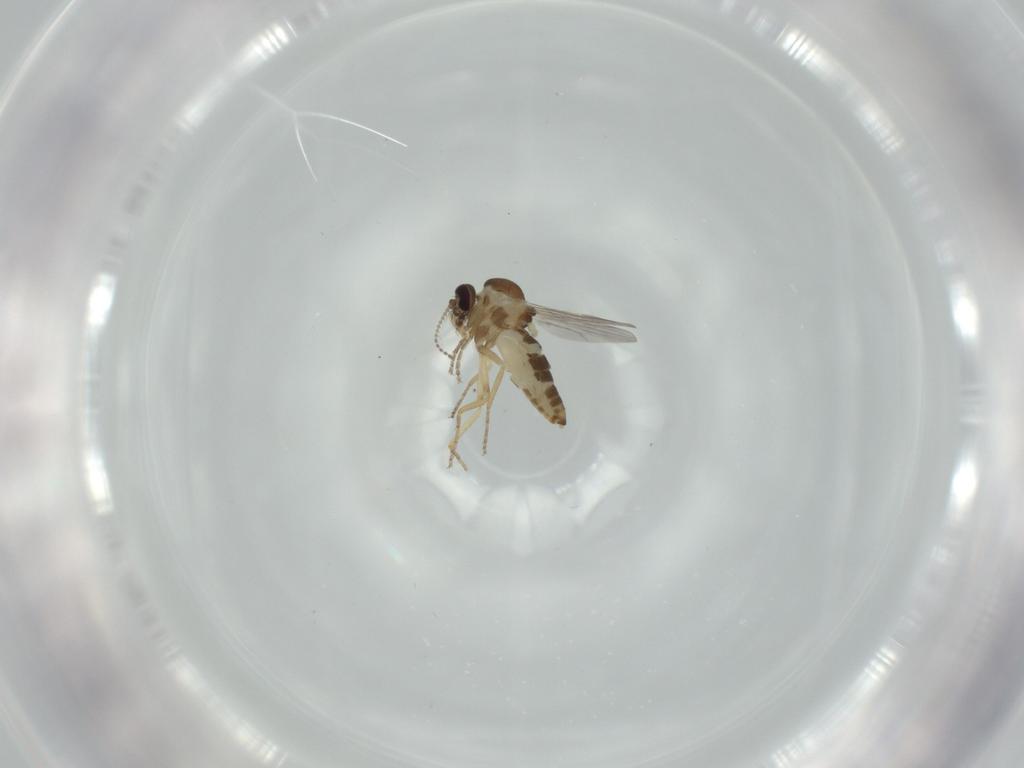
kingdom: Animalia
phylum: Arthropoda
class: Insecta
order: Diptera
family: Ceratopogonidae
